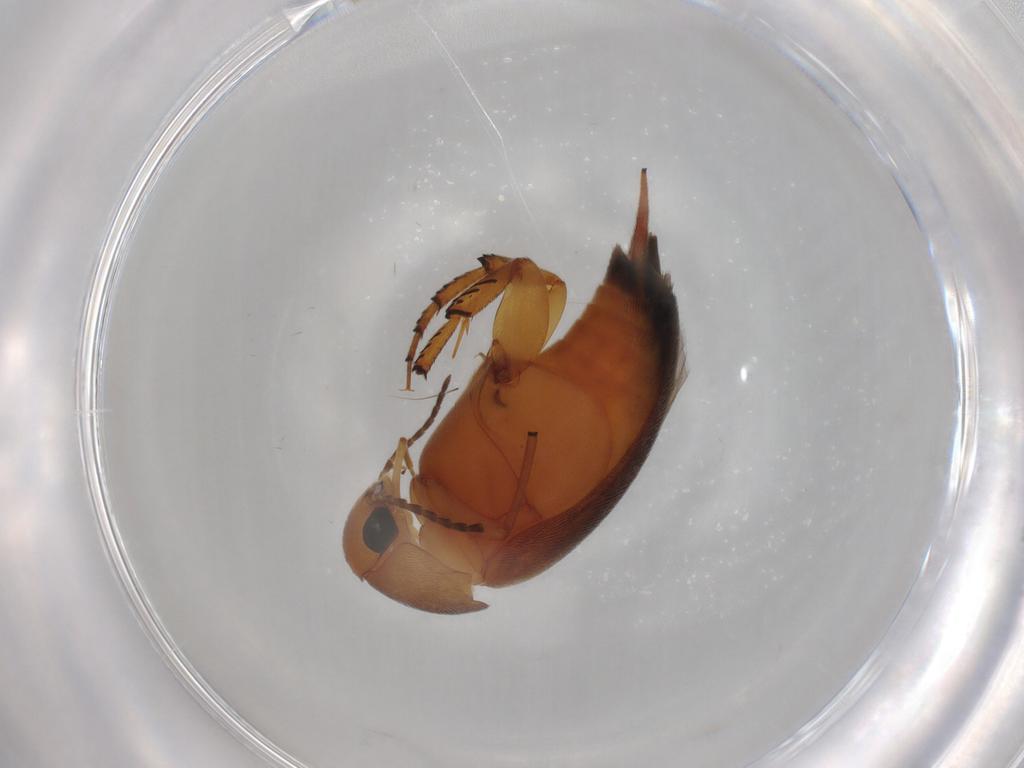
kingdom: Animalia
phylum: Arthropoda
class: Insecta
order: Coleoptera
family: Mordellidae
